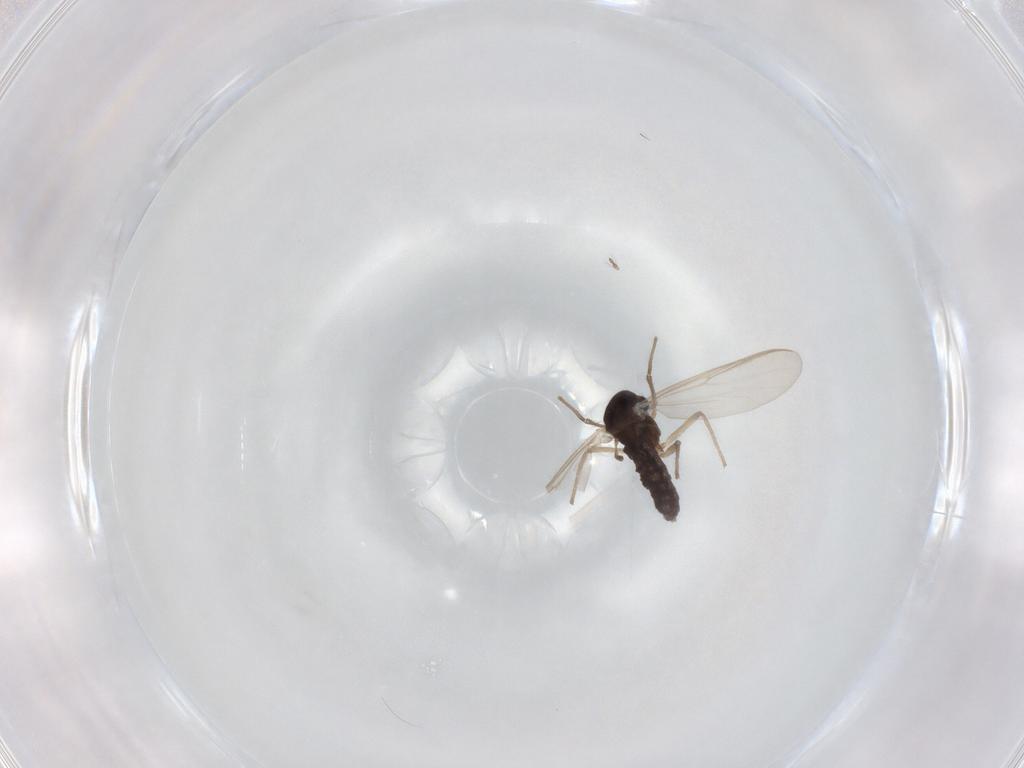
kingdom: Animalia
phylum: Arthropoda
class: Insecta
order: Diptera
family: Chironomidae
